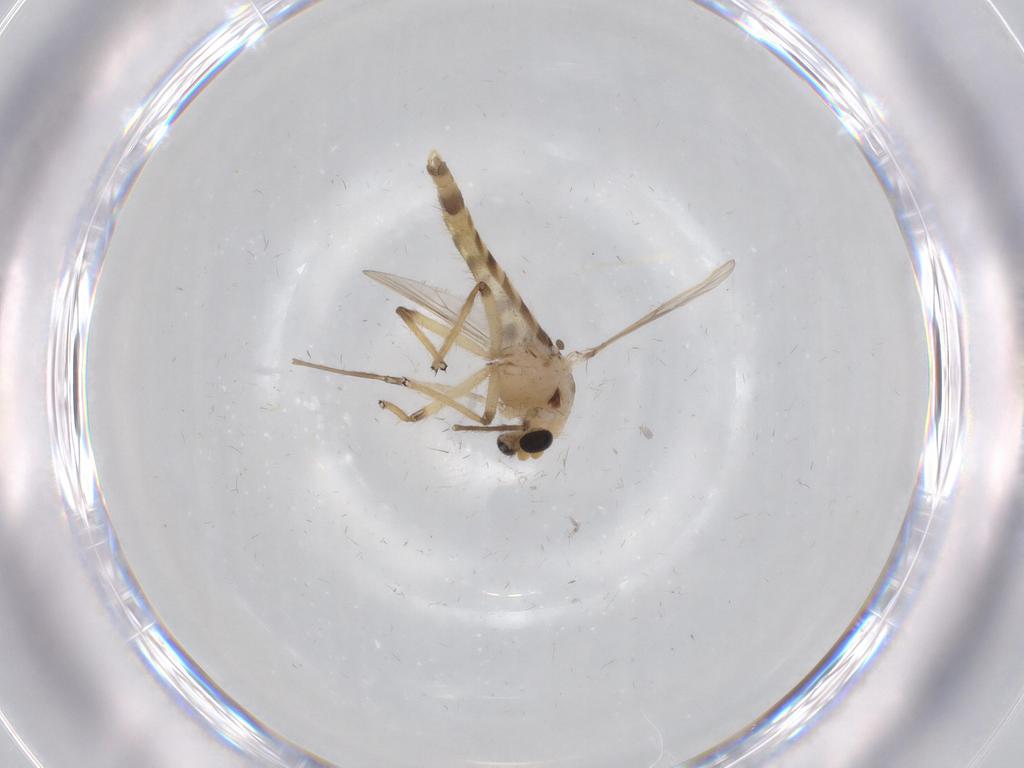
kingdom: Animalia
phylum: Arthropoda
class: Insecta
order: Diptera
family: Chironomidae
